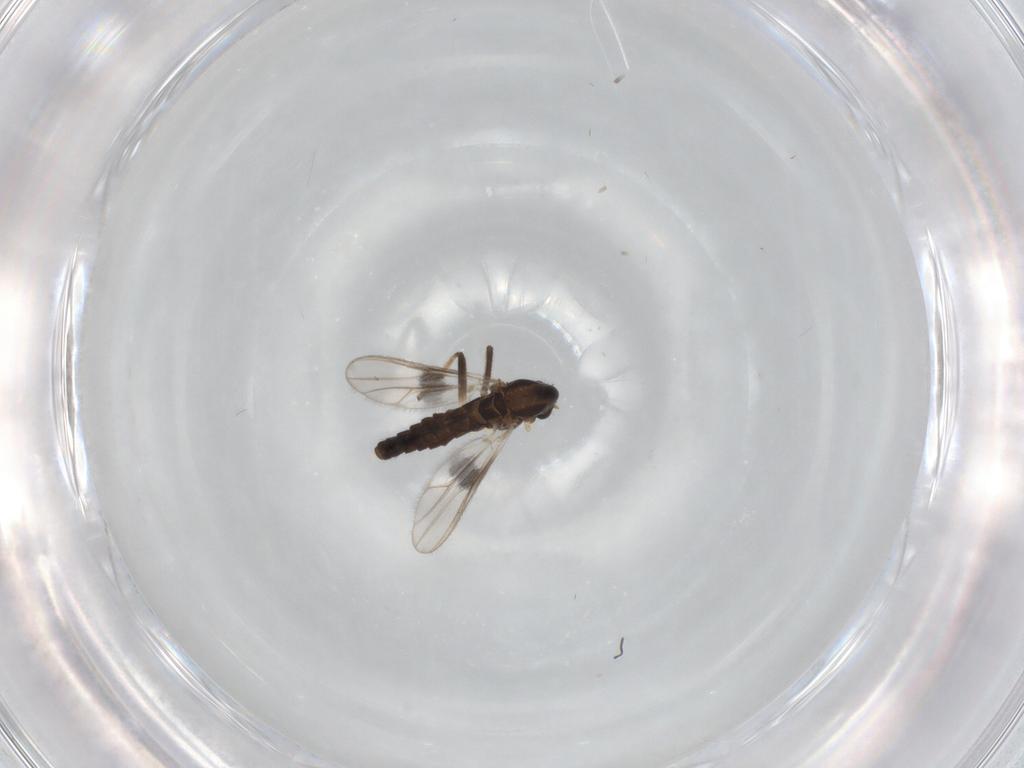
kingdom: Animalia
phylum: Arthropoda
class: Insecta
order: Diptera
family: Chironomidae
